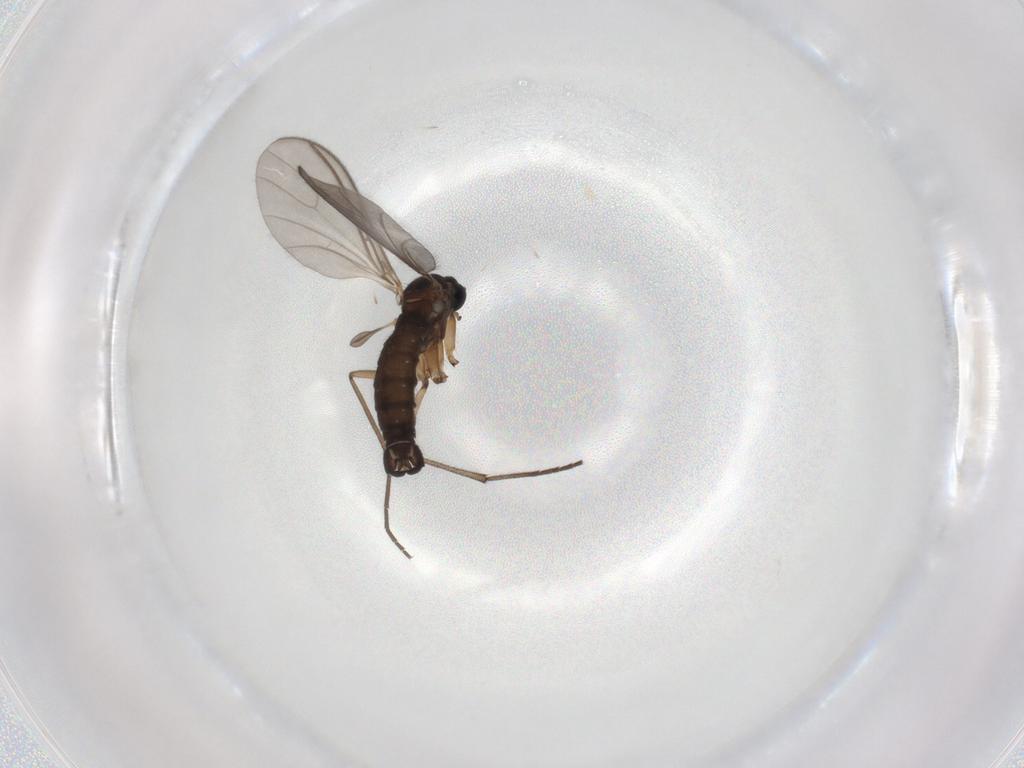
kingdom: Animalia
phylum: Arthropoda
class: Insecta
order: Diptera
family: Sciaridae
